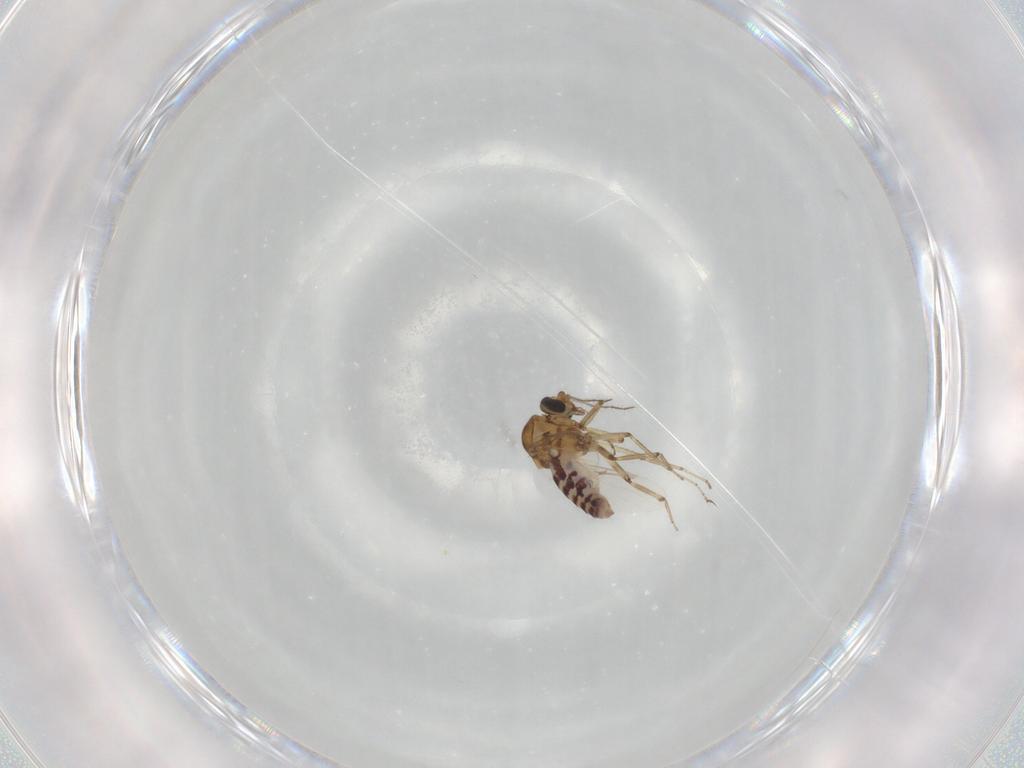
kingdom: Animalia
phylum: Arthropoda
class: Insecta
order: Diptera
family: Ceratopogonidae
